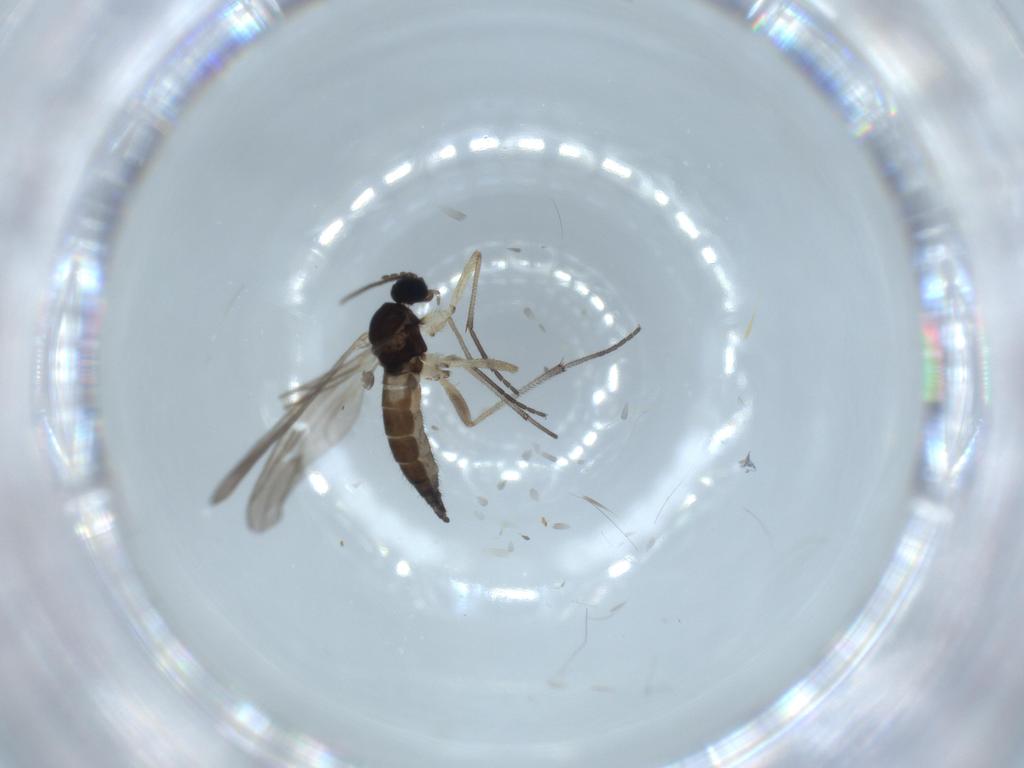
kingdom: Animalia
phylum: Arthropoda
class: Insecta
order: Diptera
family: Sciaridae
